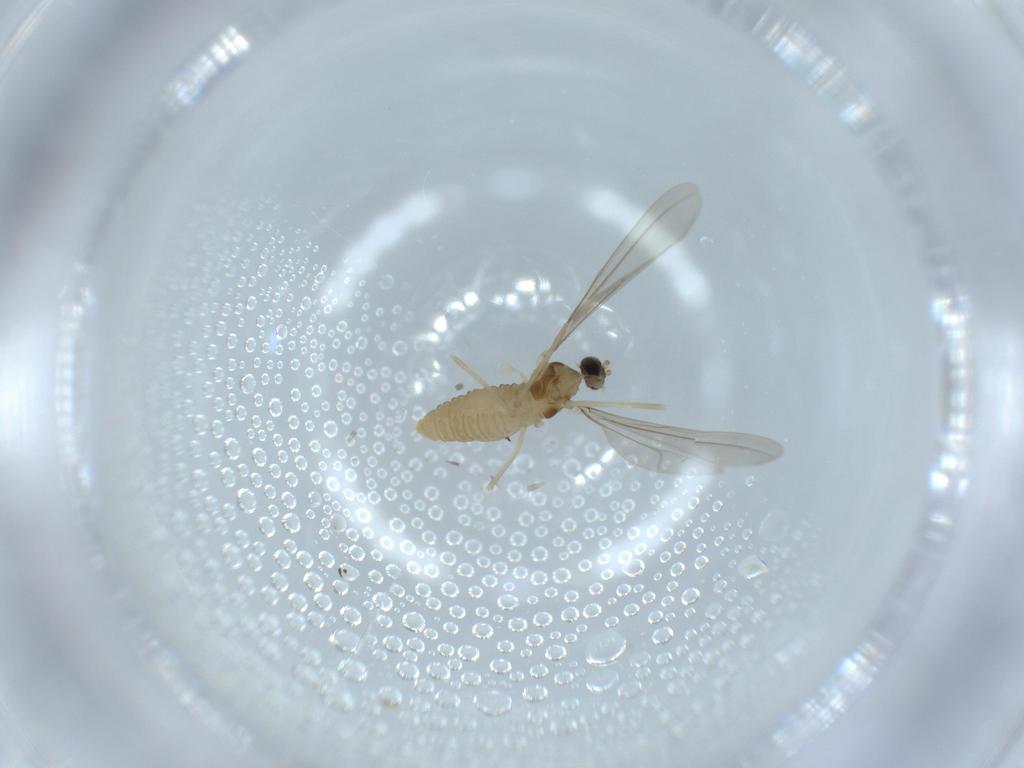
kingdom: Animalia
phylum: Arthropoda
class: Insecta
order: Diptera
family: Cecidomyiidae
